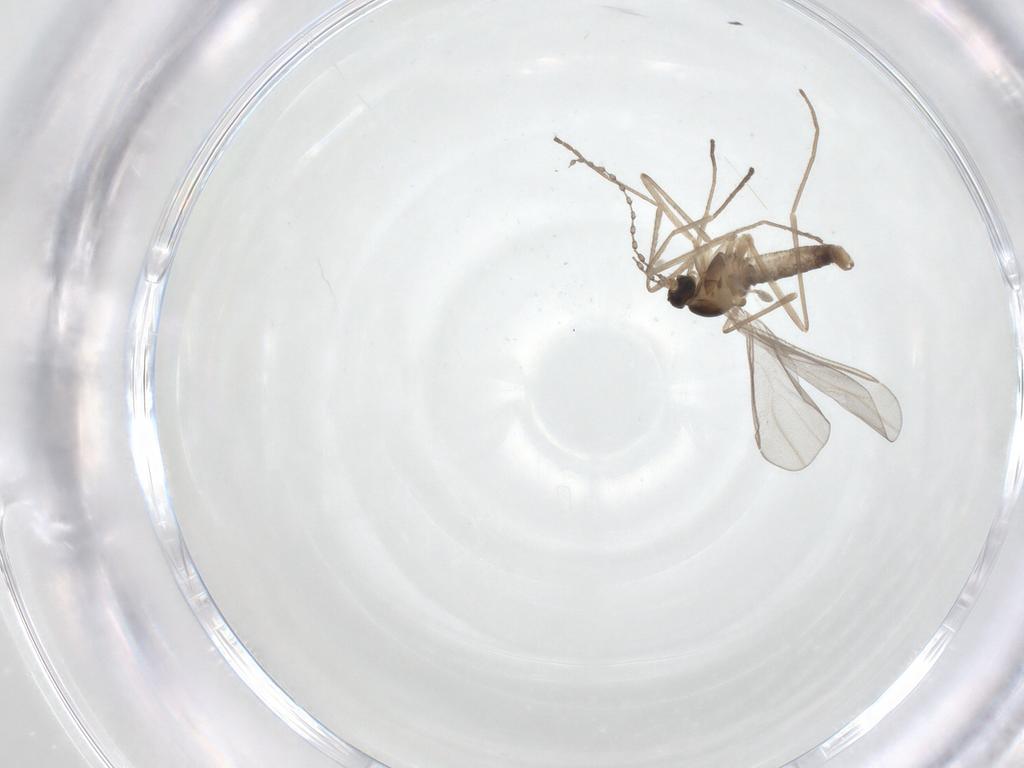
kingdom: Animalia
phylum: Arthropoda
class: Insecta
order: Diptera
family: Cecidomyiidae
